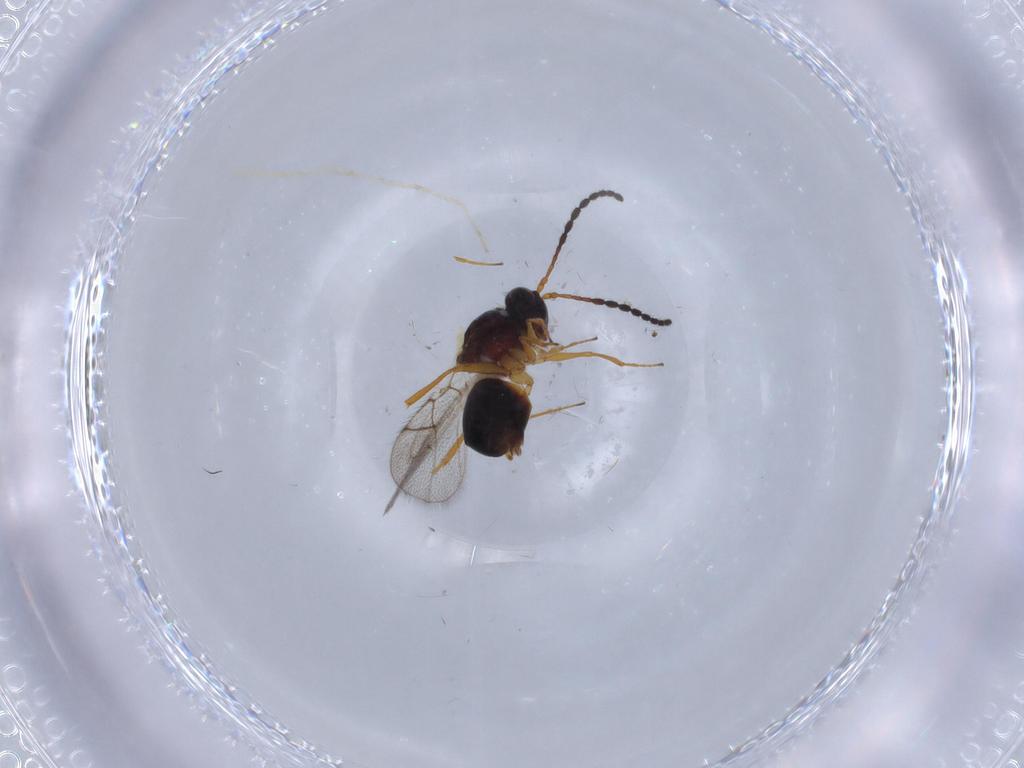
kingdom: Animalia
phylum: Arthropoda
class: Insecta
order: Hymenoptera
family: Figitidae
